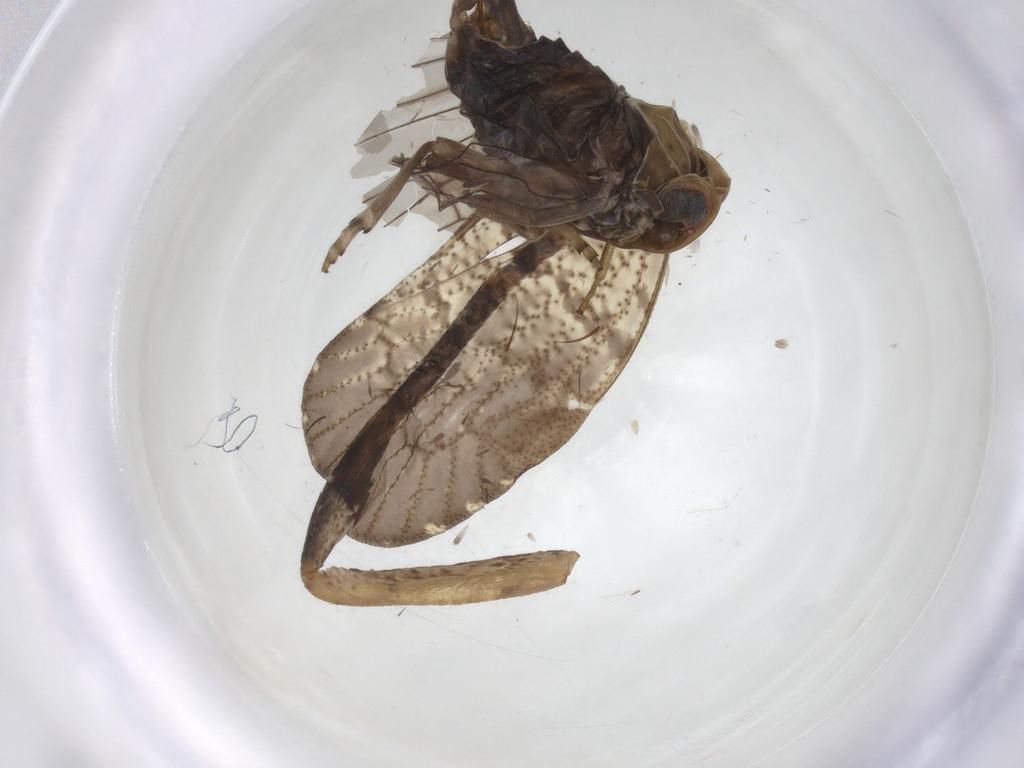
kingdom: Animalia
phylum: Arthropoda
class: Insecta
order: Hemiptera
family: Cixiidae
